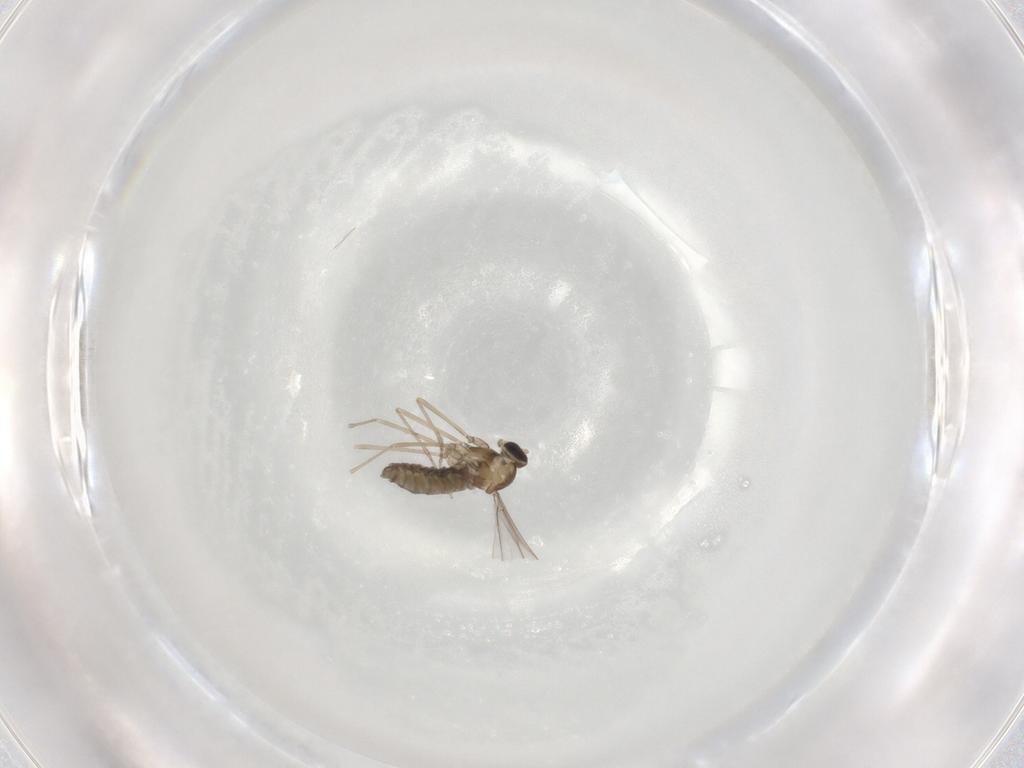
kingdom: Animalia
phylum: Arthropoda
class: Insecta
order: Diptera
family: Cecidomyiidae
